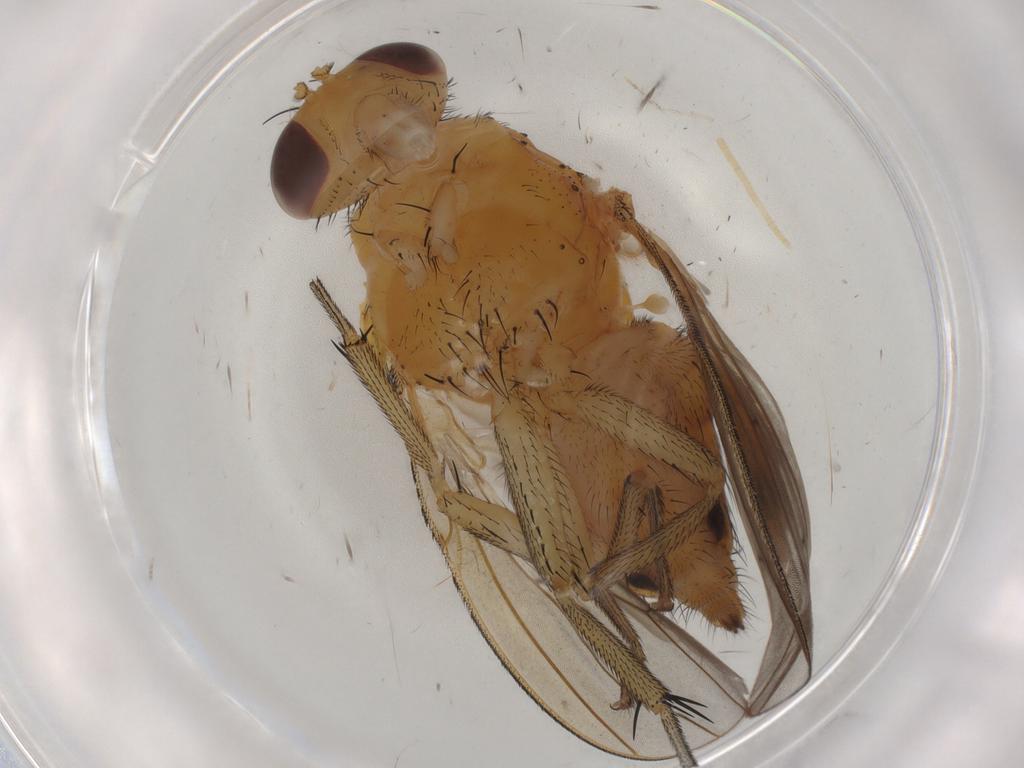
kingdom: Animalia
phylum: Arthropoda
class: Insecta
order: Diptera
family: Lauxaniidae
